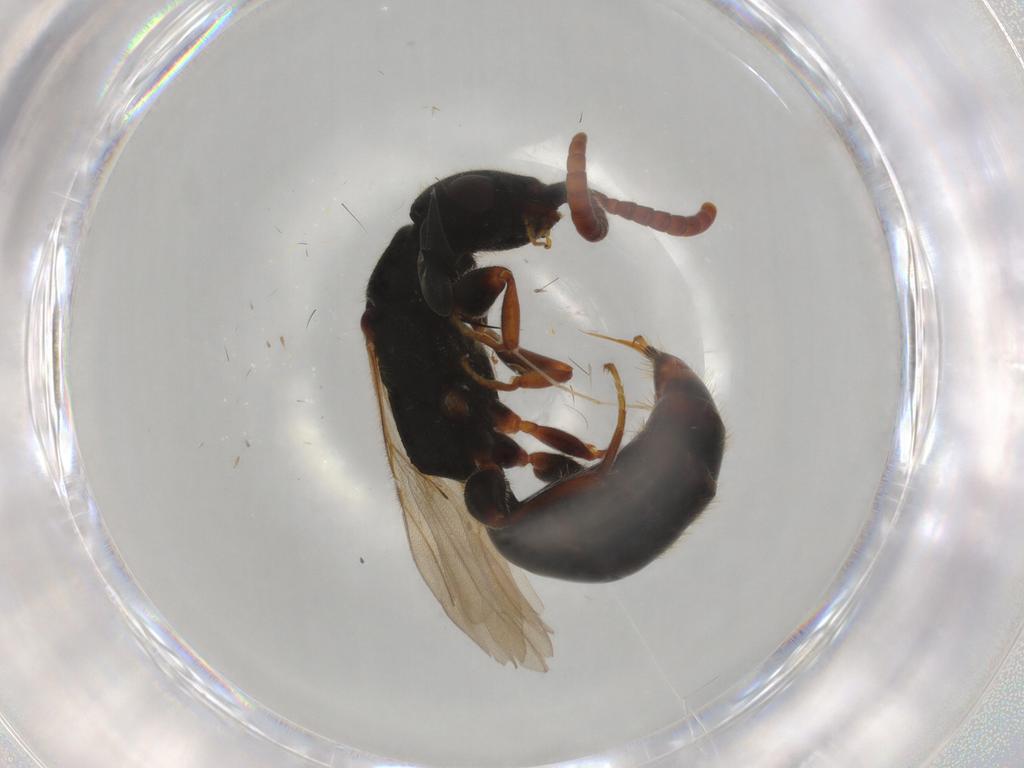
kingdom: Animalia
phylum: Arthropoda
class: Insecta
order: Hymenoptera
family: Bethylidae
